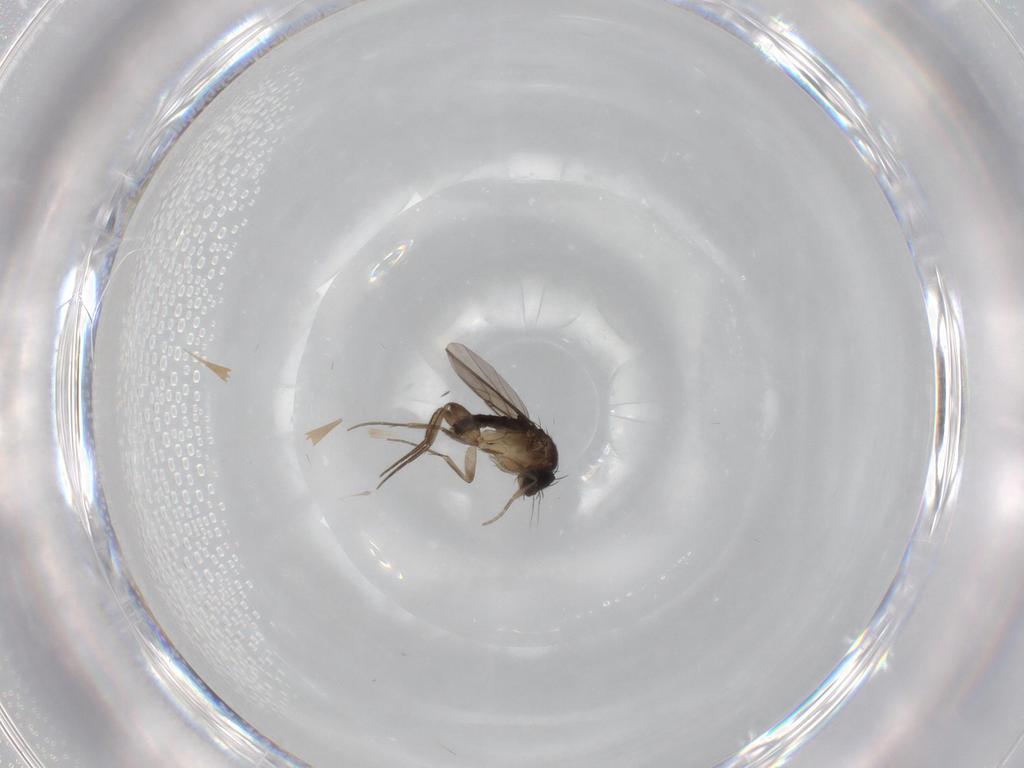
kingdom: Animalia
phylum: Arthropoda
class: Insecta
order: Diptera
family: Phoridae
